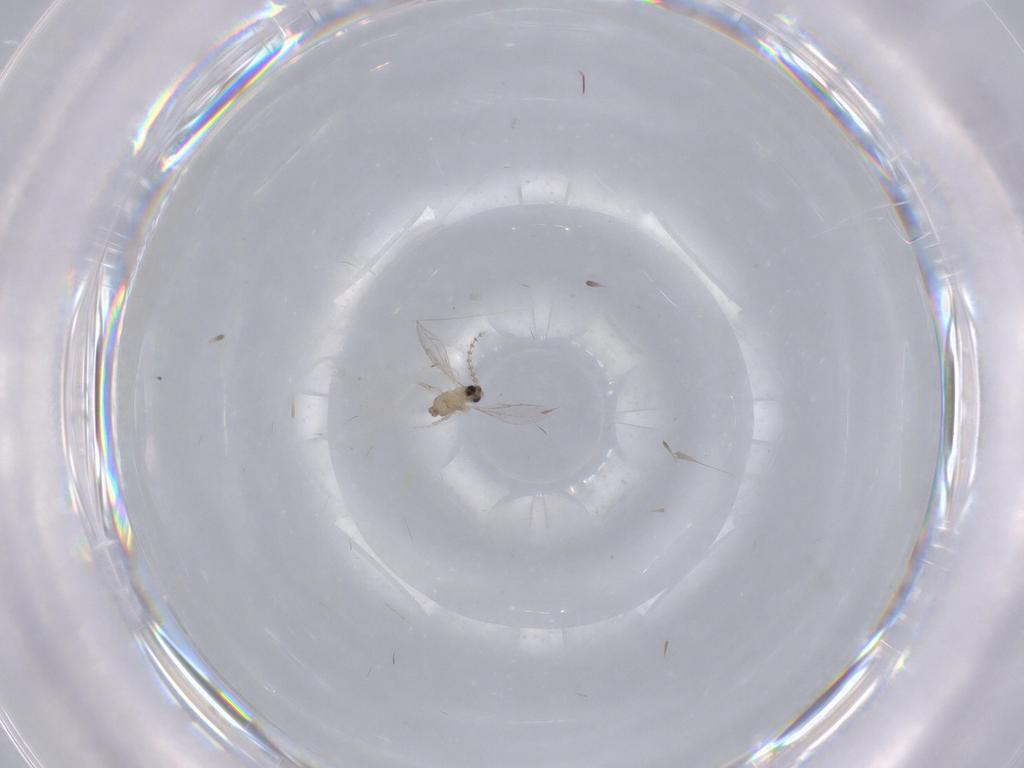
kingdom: Animalia
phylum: Arthropoda
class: Insecta
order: Diptera
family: Cecidomyiidae
